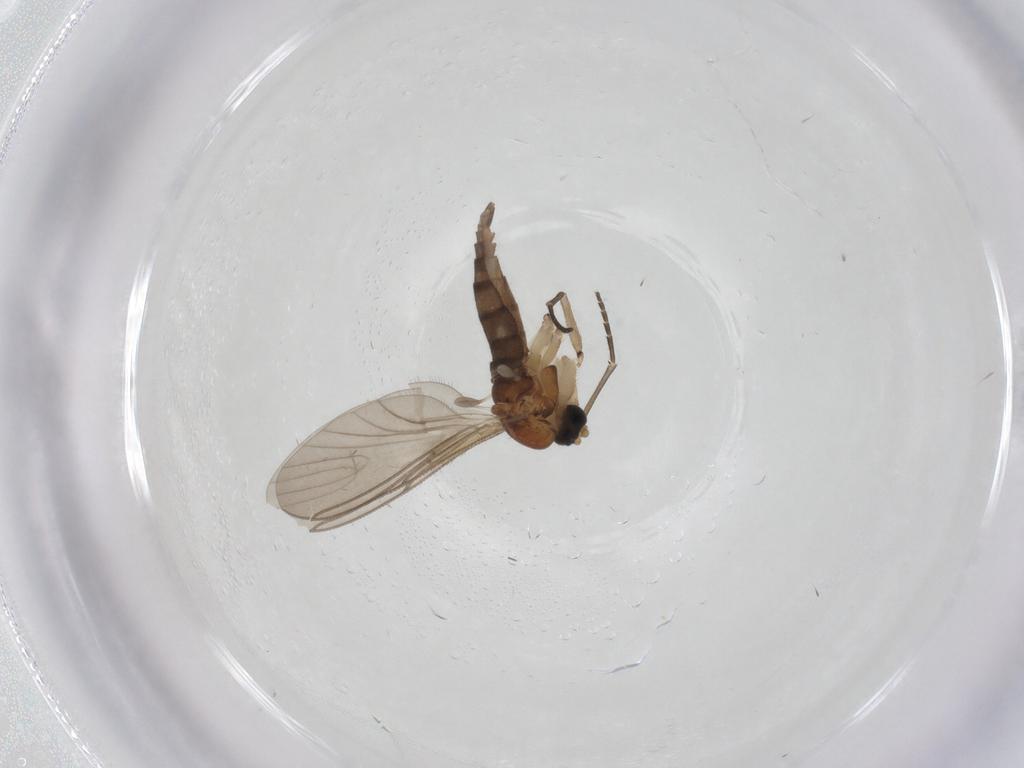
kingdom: Animalia
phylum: Arthropoda
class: Insecta
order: Diptera
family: Sciaridae
